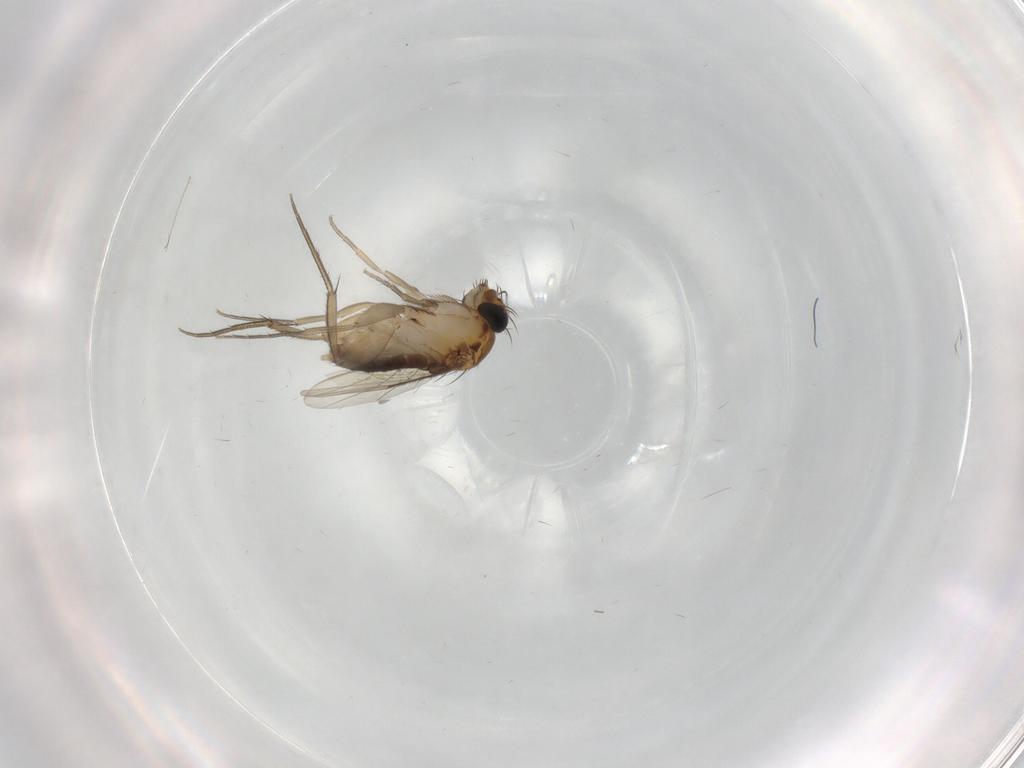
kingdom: Animalia
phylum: Arthropoda
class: Insecta
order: Diptera
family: Phoridae
